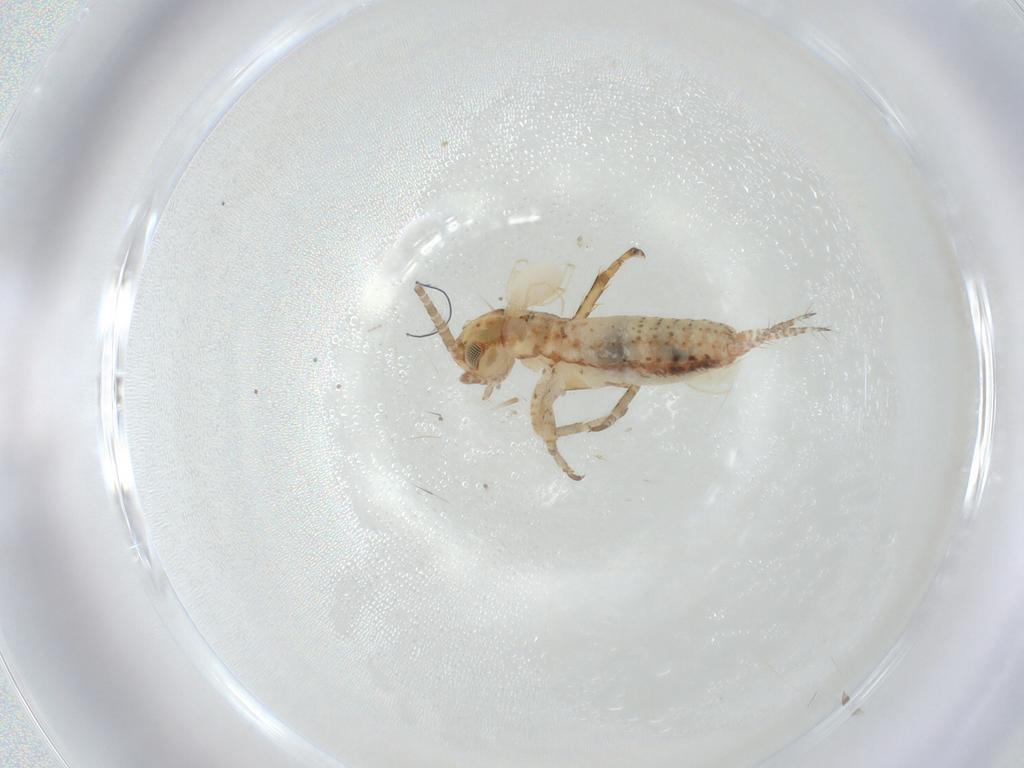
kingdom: Animalia
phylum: Arthropoda
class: Insecta
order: Orthoptera
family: Mogoplistidae
